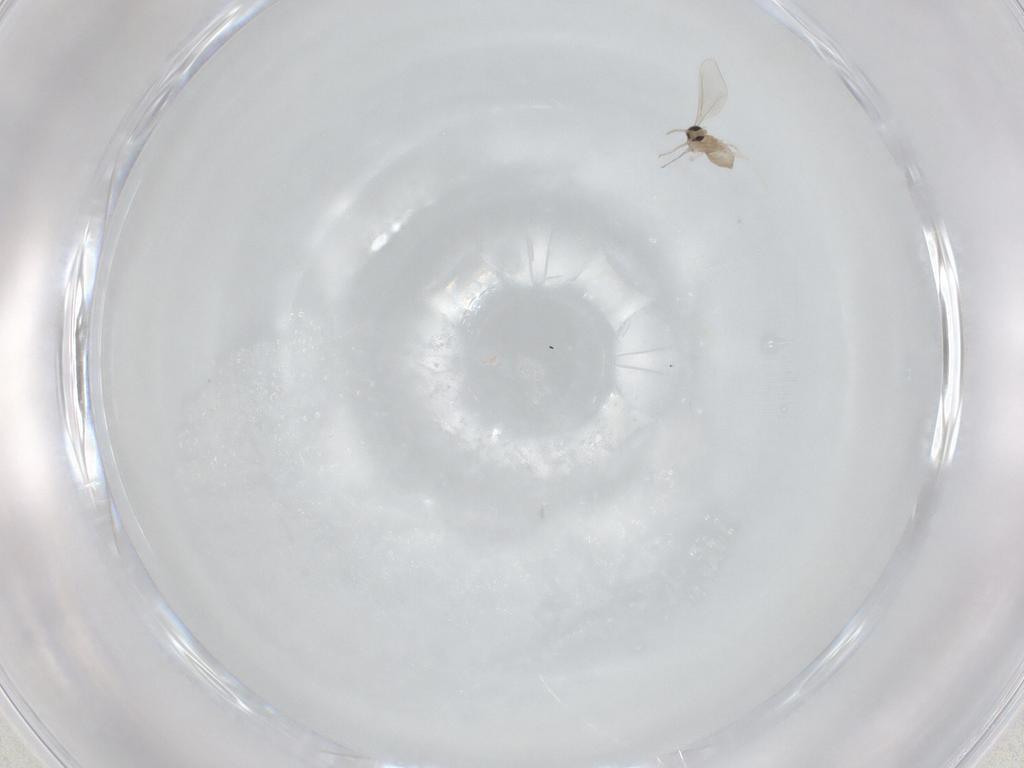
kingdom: Animalia
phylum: Arthropoda
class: Insecta
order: Diptera
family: Cecidomyiidae
